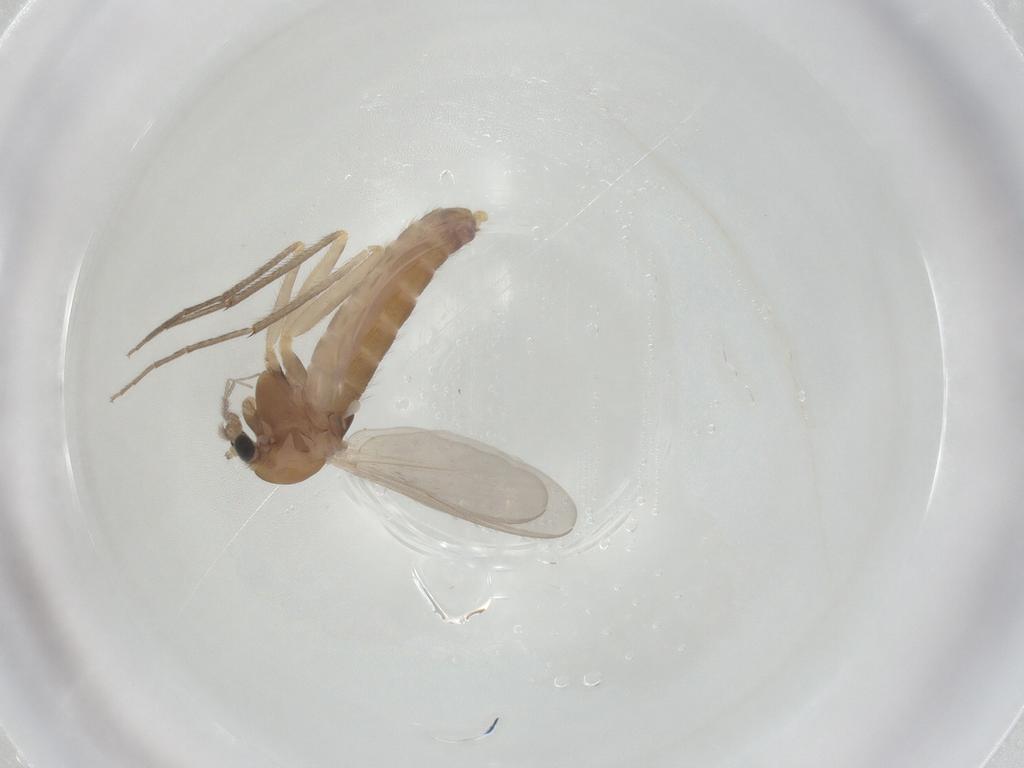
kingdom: Animalia
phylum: Arthropoda
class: Insecta
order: Diptera
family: Chironomidae
